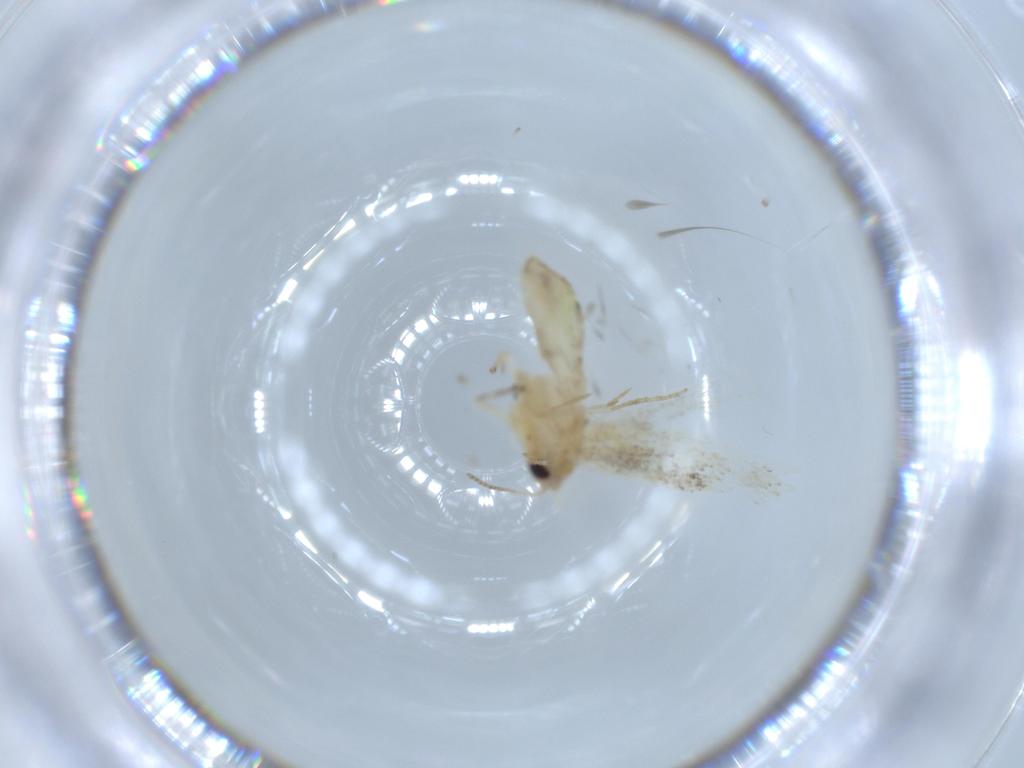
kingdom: Animalia
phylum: Arthropoda
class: Insecta
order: Lepidoptera
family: Bucculatricidae
